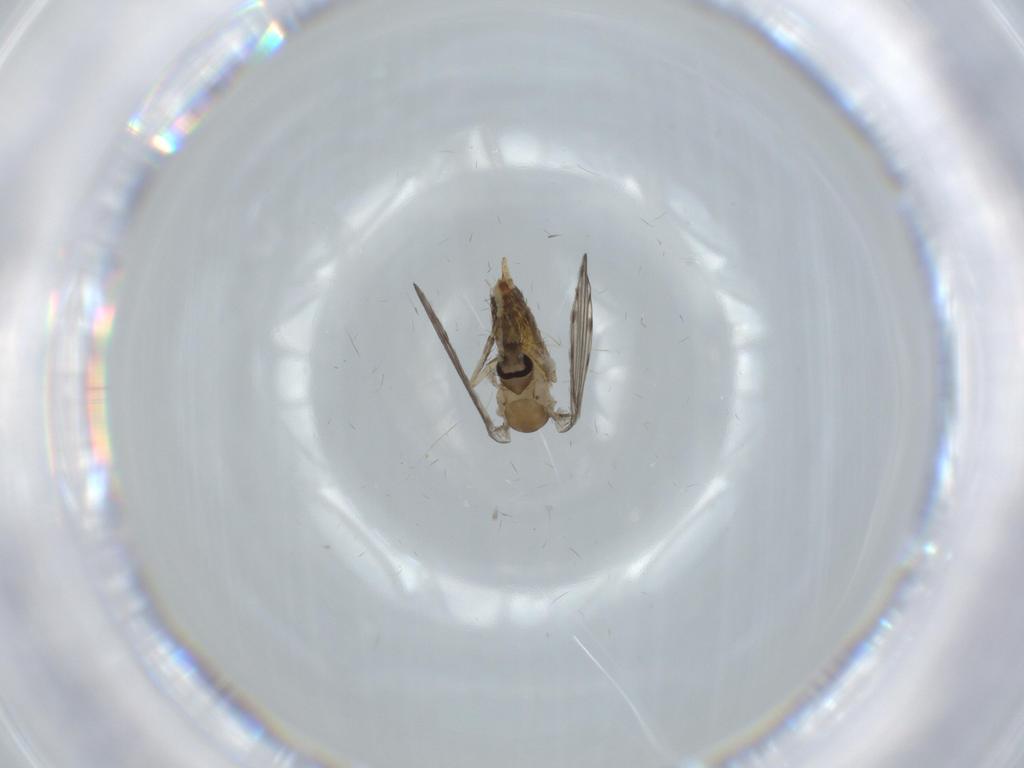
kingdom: Animalia
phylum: Arthropoda
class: Insecta
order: Diptera
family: Psychodidae
